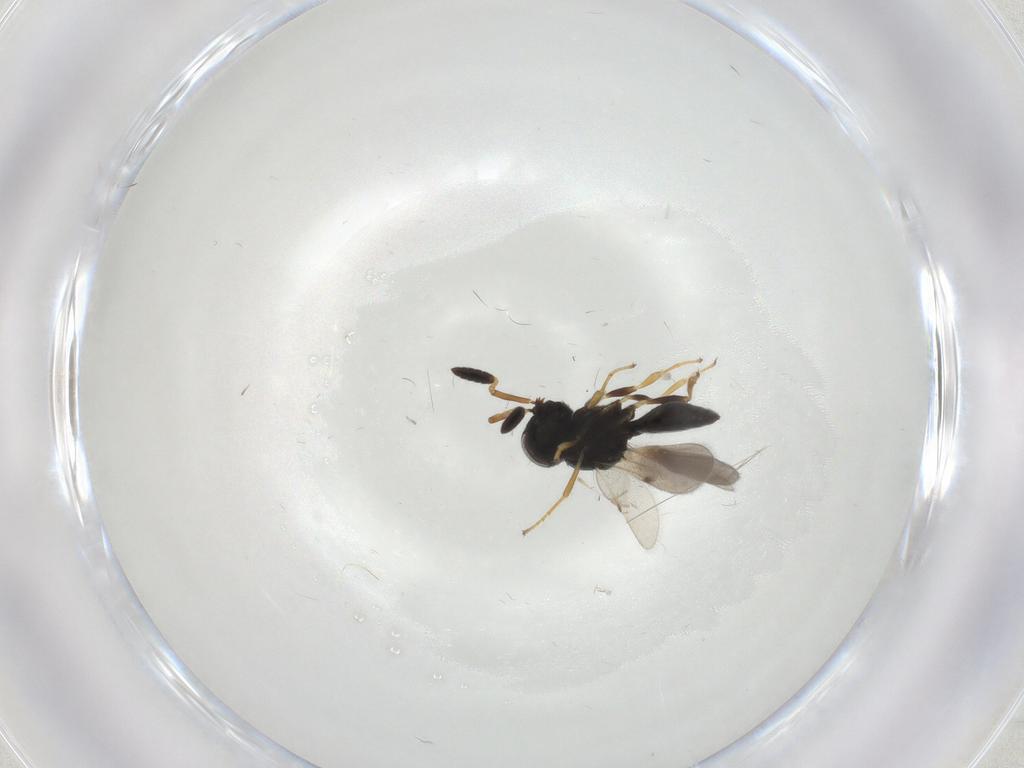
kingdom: Animalia
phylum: Arthropoda
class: Insecta
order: Hymenoptera
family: Scelionidae
